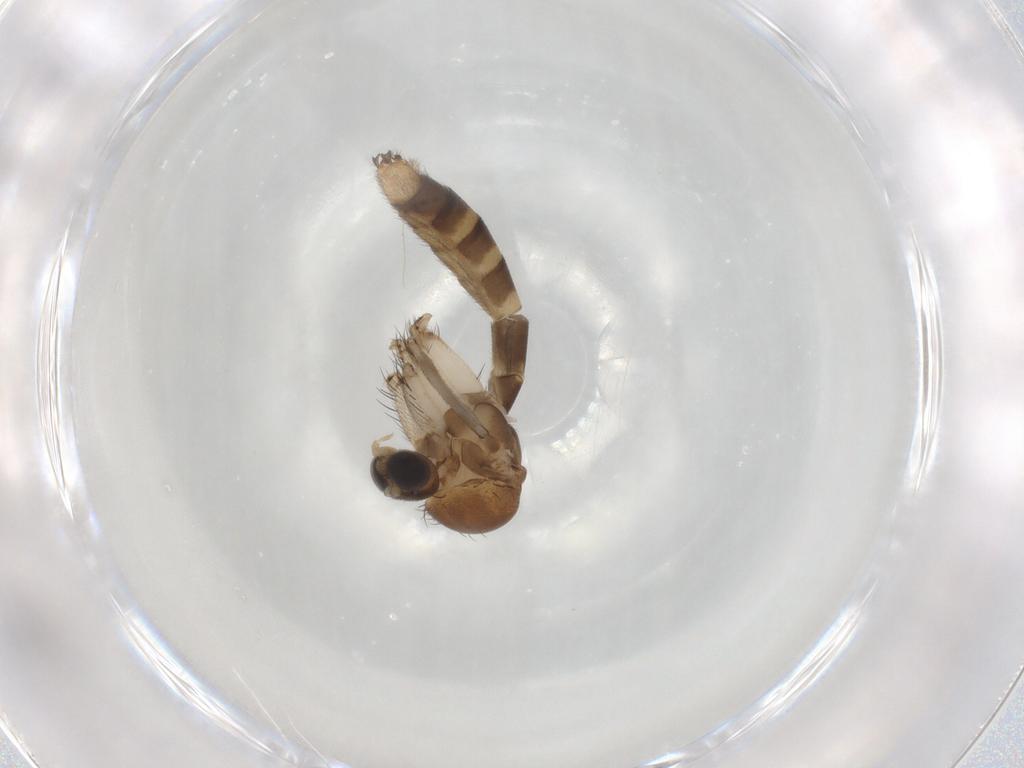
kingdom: Animalia
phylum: Arthropoda
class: Insecta
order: Diptera
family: Mycetophilidae
